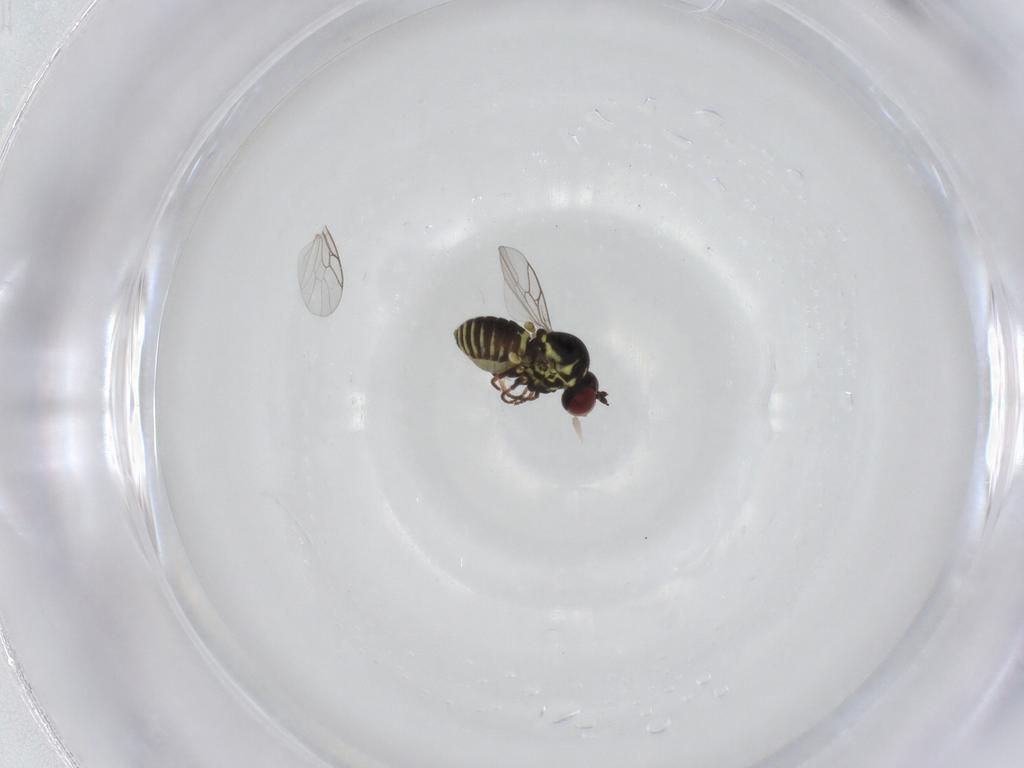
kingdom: Animalia
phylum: Arthropoda
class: Insecta
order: Diptera
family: Mythicomyiidae
